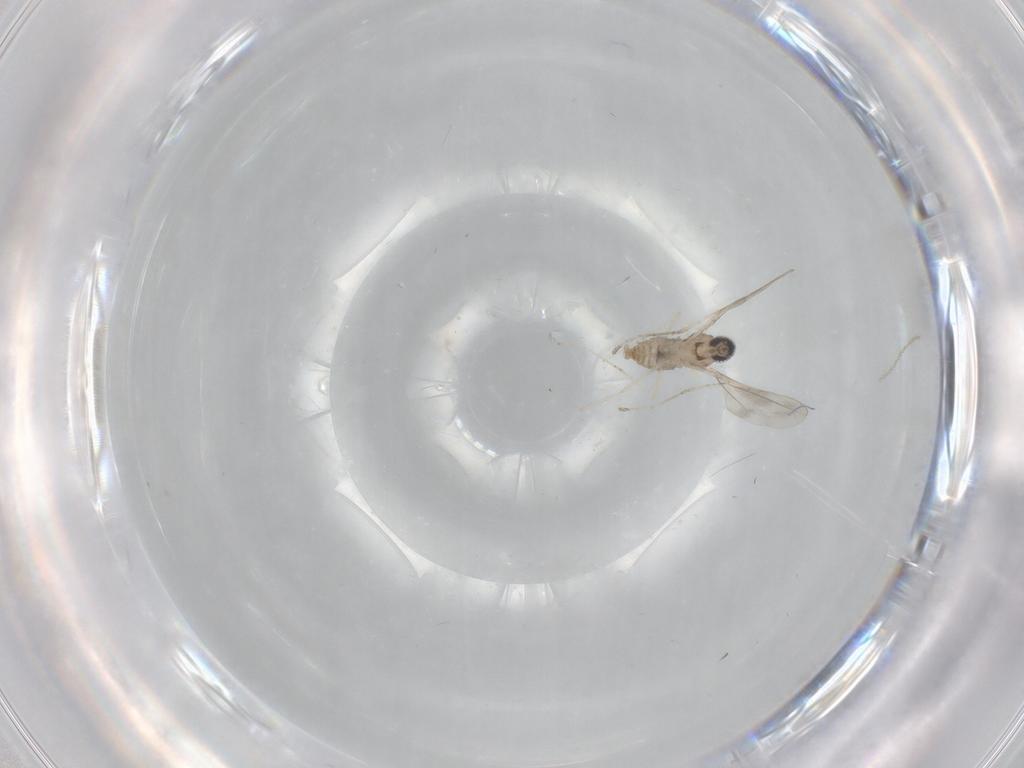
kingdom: Animalia
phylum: Arthropoda
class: Insecta
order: Diptera
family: Cecidomyiidae
